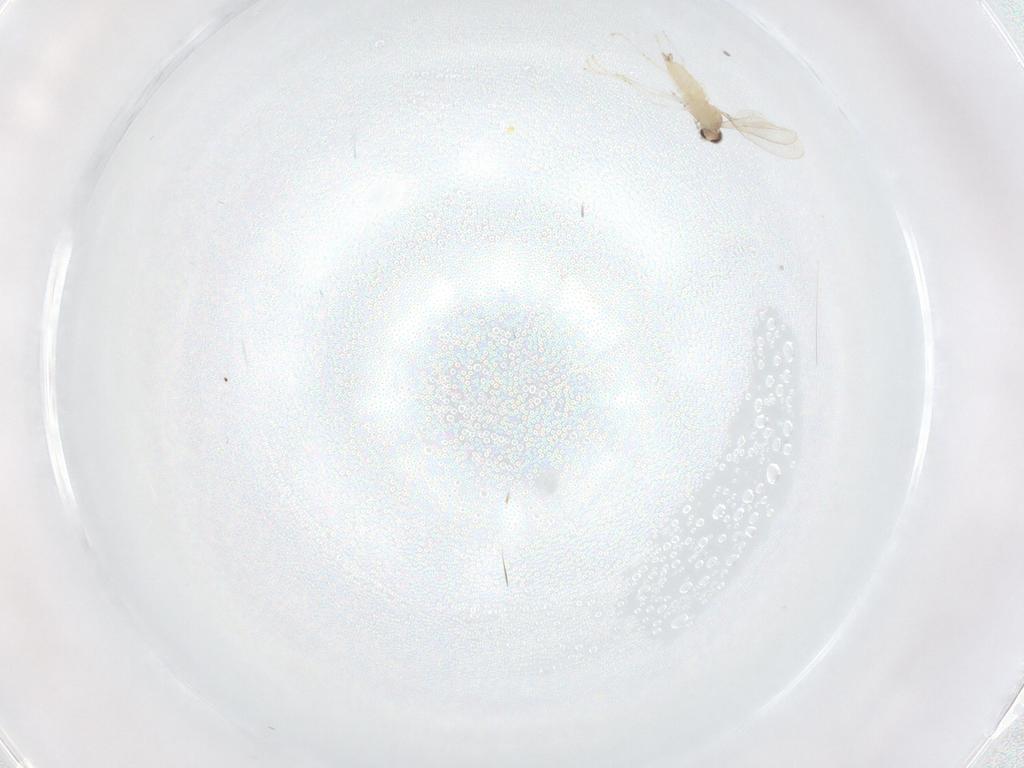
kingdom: Animalia
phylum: Arthropoda
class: Insecta
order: Diptera
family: Cecidomyiidae
